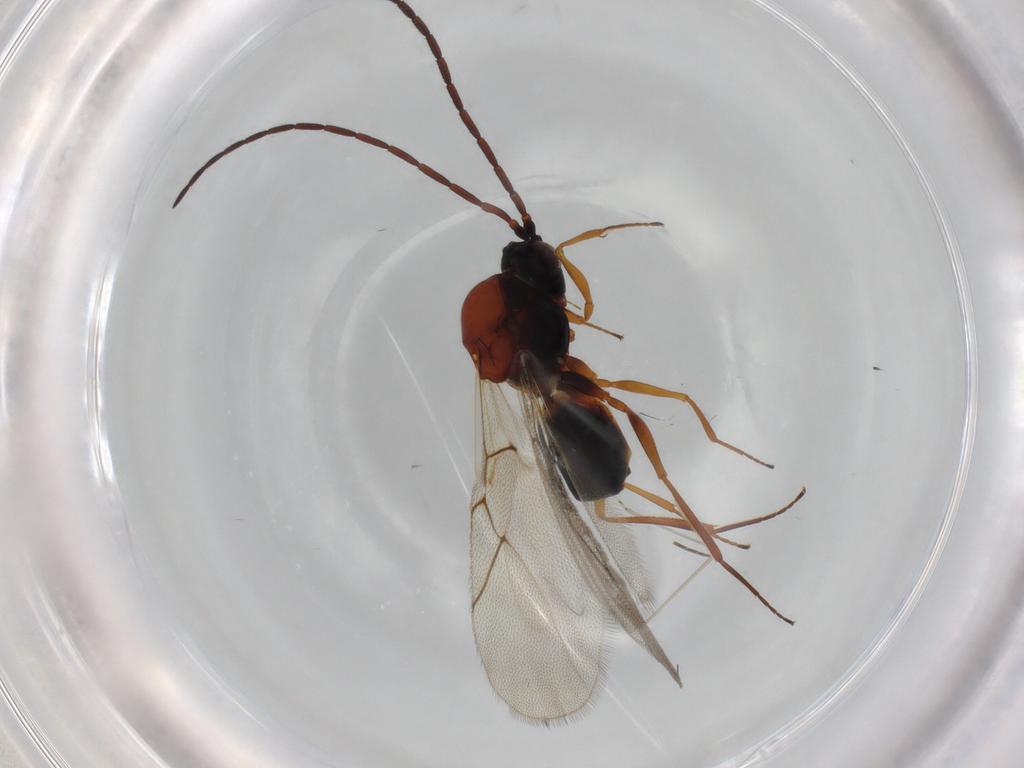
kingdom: Animalia
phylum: Arthropoda
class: Insecta
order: Hymenoptera
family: Figitidae
